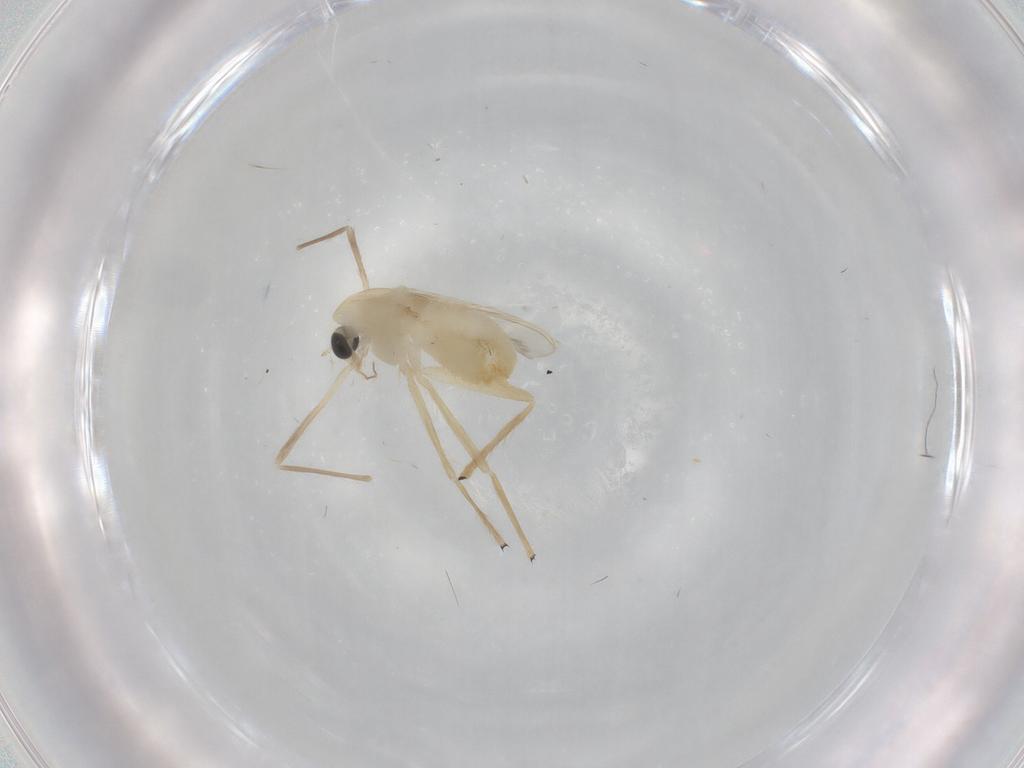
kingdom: Animalia
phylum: Arthropoda
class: Insecta
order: Diptera
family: Chironomidae
